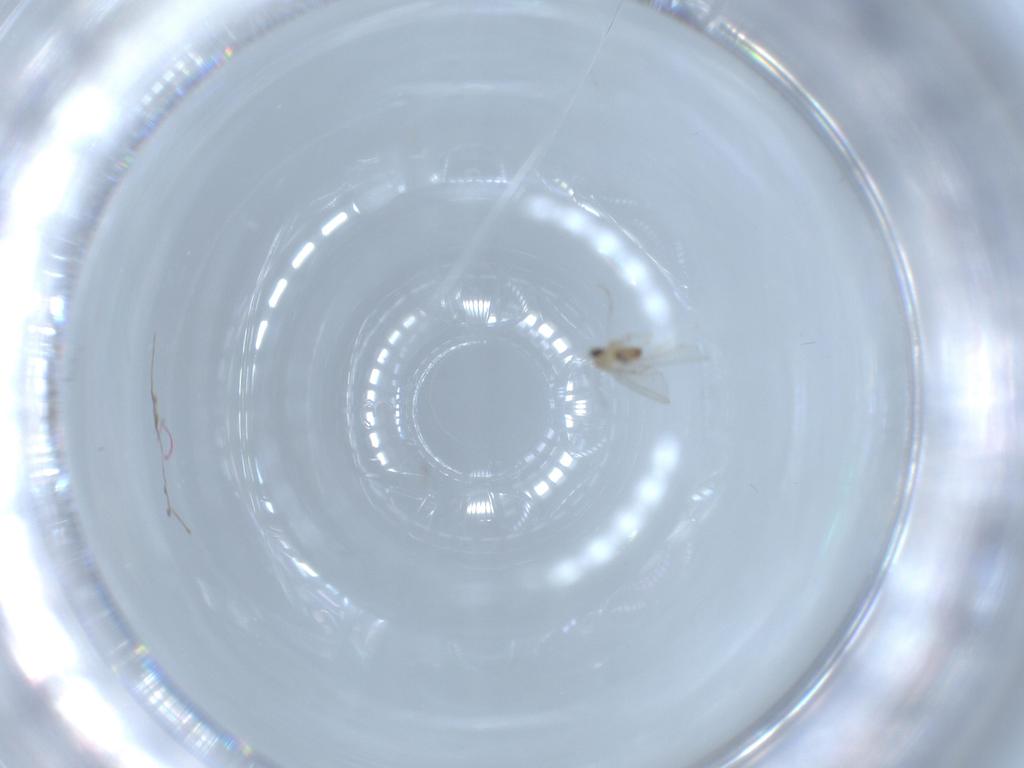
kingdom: Animalia
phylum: Arthropoda
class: Insecta
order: Diptera
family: Cecidomyiidae
